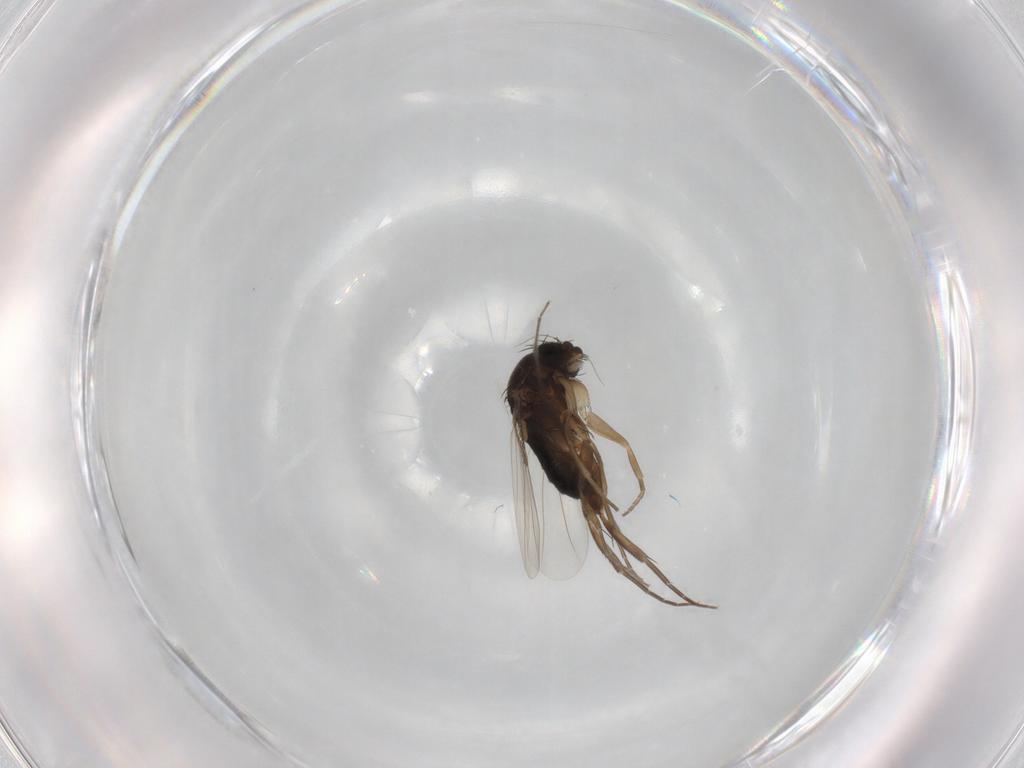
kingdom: Animalia
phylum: Arthropoda
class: Insecta
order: Diptera
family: Phoridae
